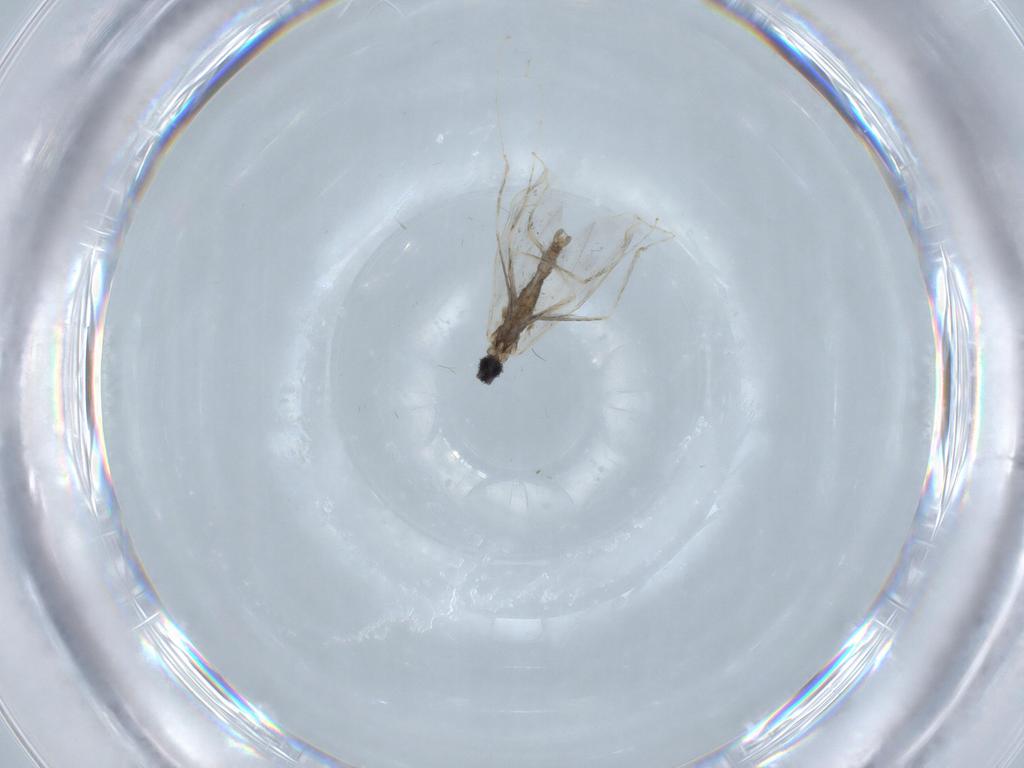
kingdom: Animalia
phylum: Arthropoda
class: Insecta
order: Diptera
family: Cecidomyiidae
